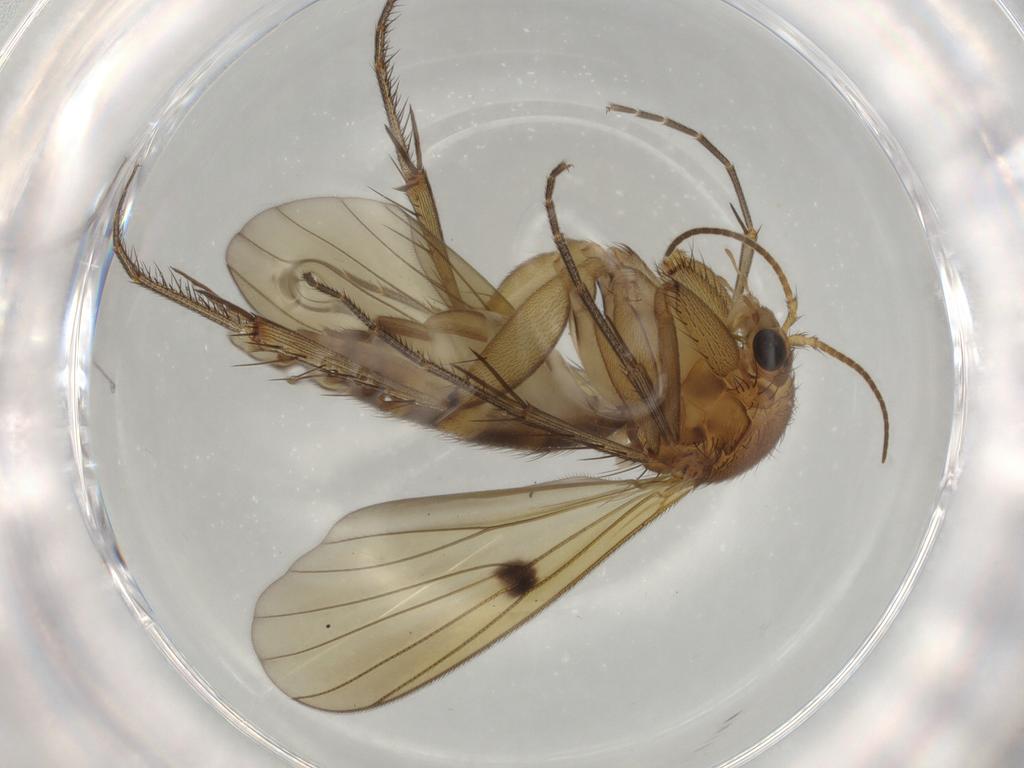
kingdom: Animalia
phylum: Arthropoda
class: Insecta
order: Diptera
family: Mycetophilidae
